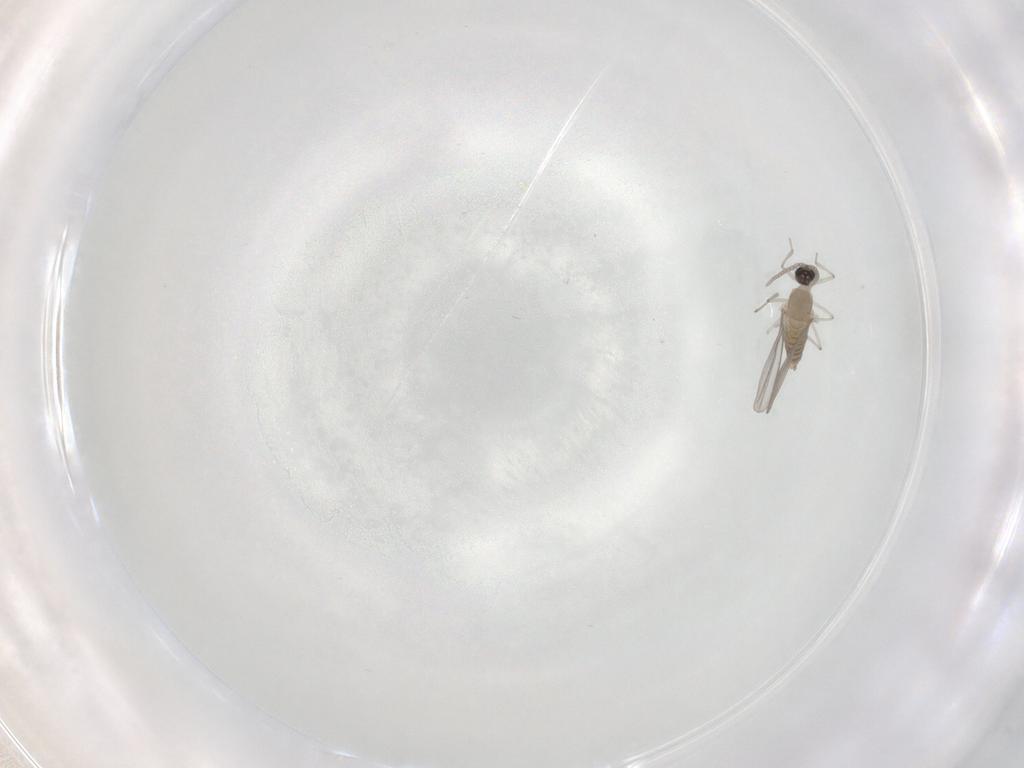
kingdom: Animalia
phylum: Arthropoda
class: Insecta
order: Diptera
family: Cecidomyiidae
